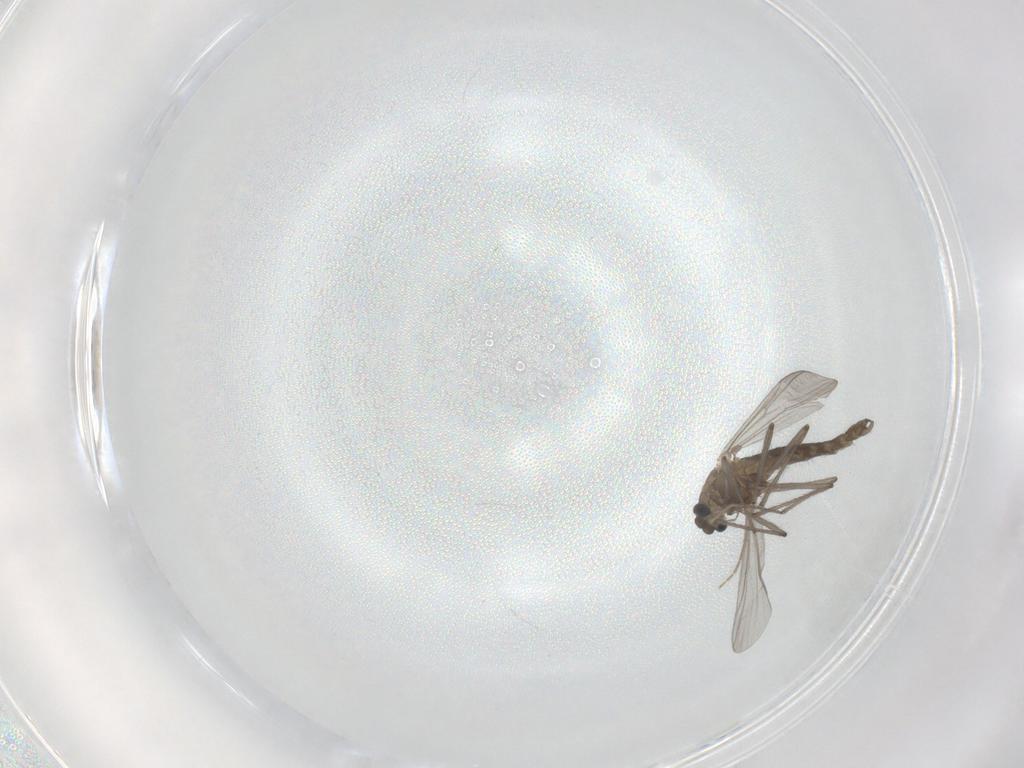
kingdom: Animalia
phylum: Arthropoda
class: Insecta
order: Diptera
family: Chironomidae
